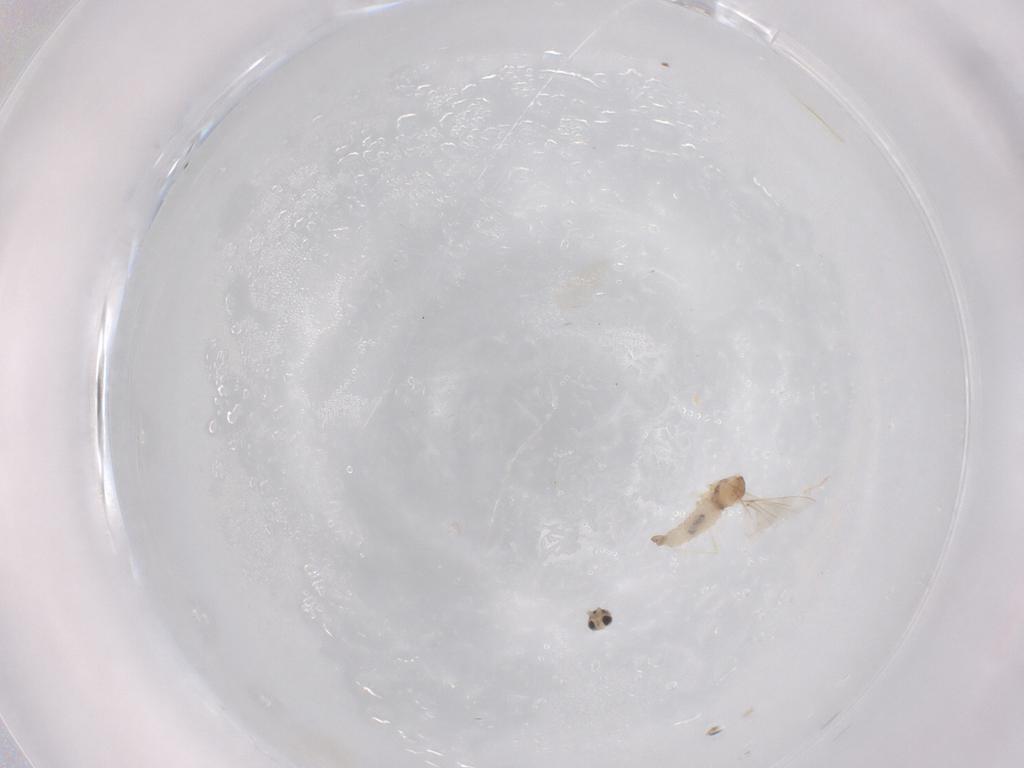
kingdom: Animalia
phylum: Arthropoda
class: Insecta
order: Diptera
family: Cecidomyiidae
